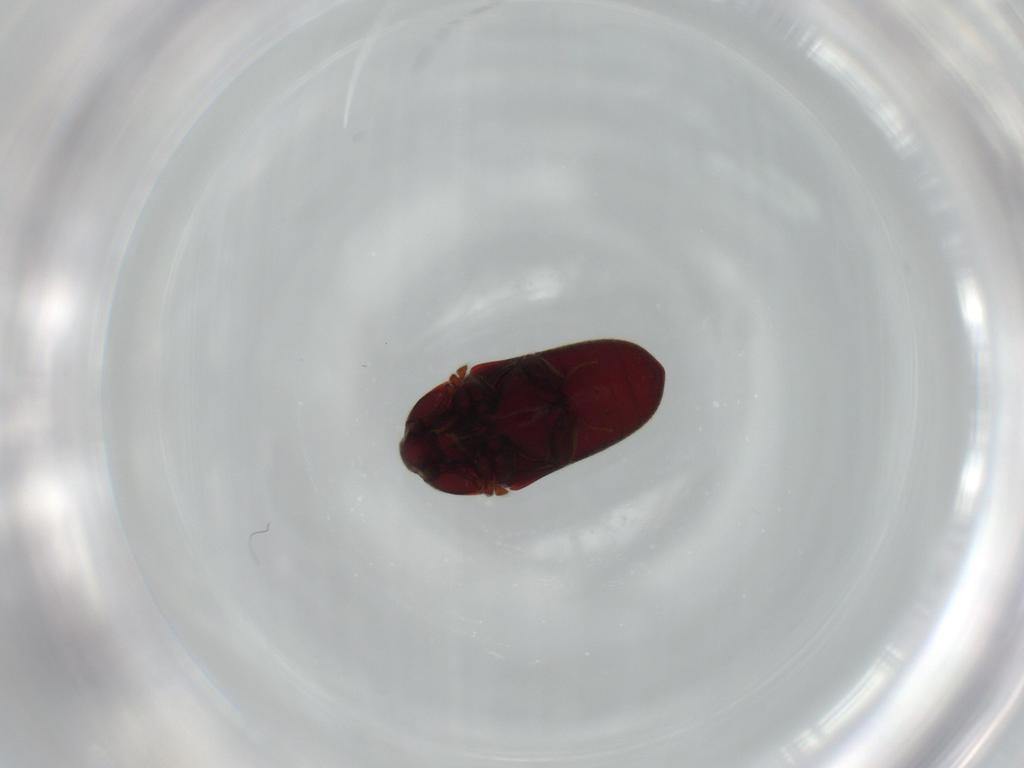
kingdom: Animalia
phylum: Arthropoda
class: Insecta
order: Coleoptera
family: Throscidae
